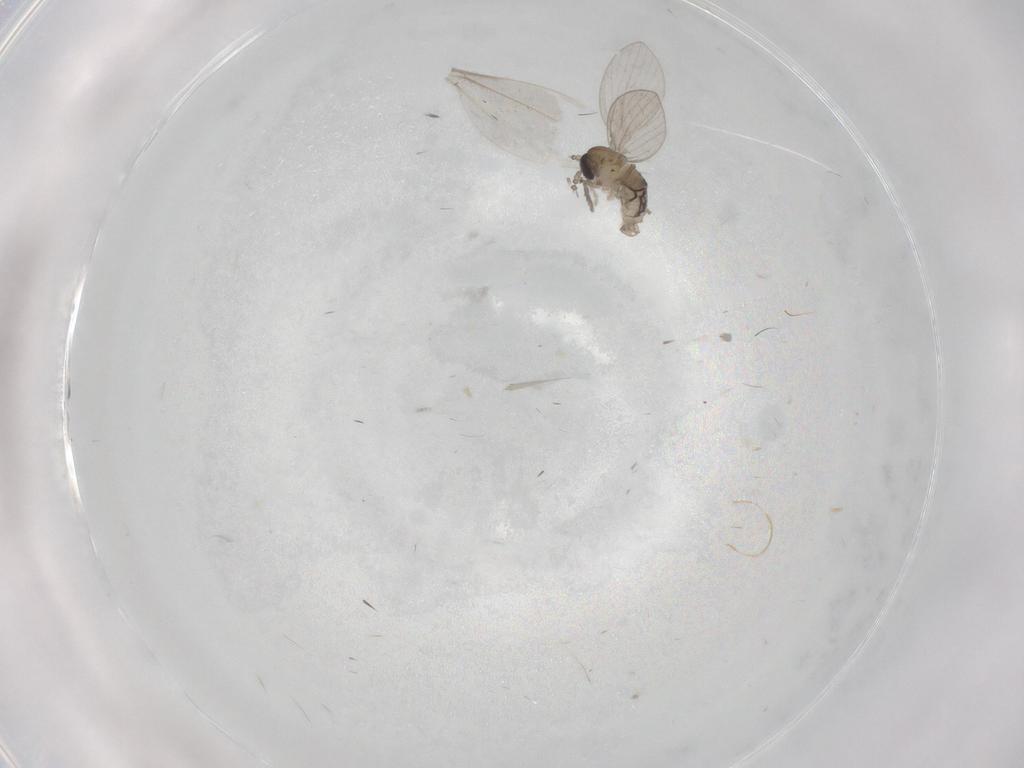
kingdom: Animalia
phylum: Arthropoda
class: Insecta
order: Diptera
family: Psychodidae
